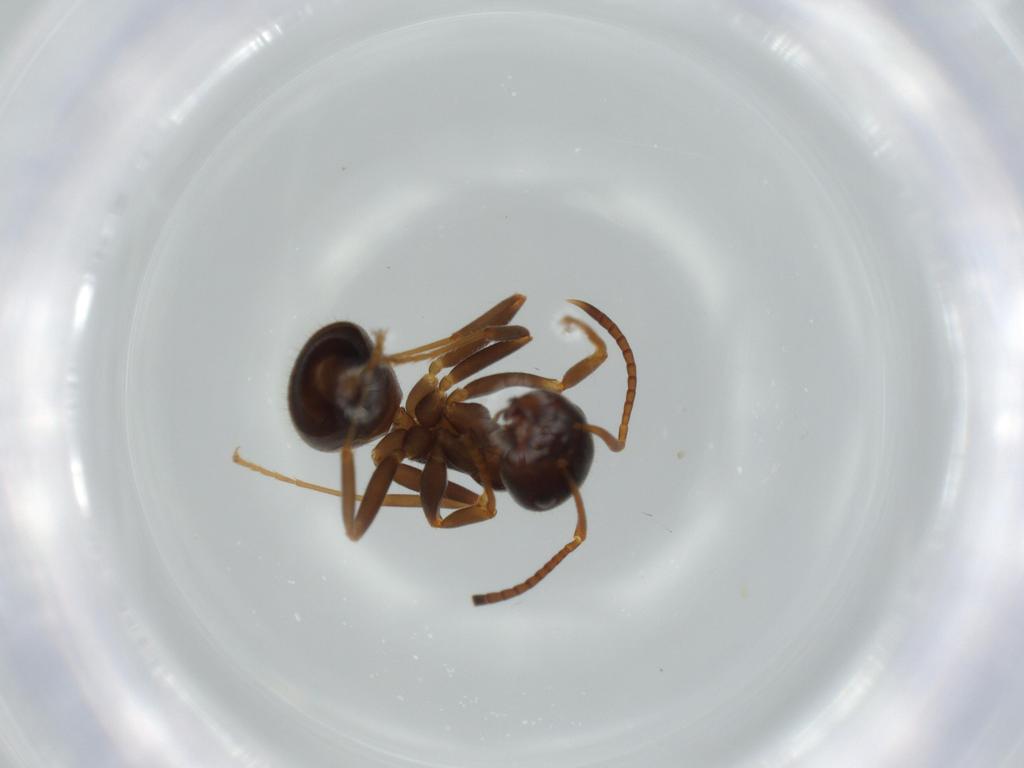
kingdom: Animalia
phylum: Arthropoda
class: Insecta
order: Hymenoptera
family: Formicidae
